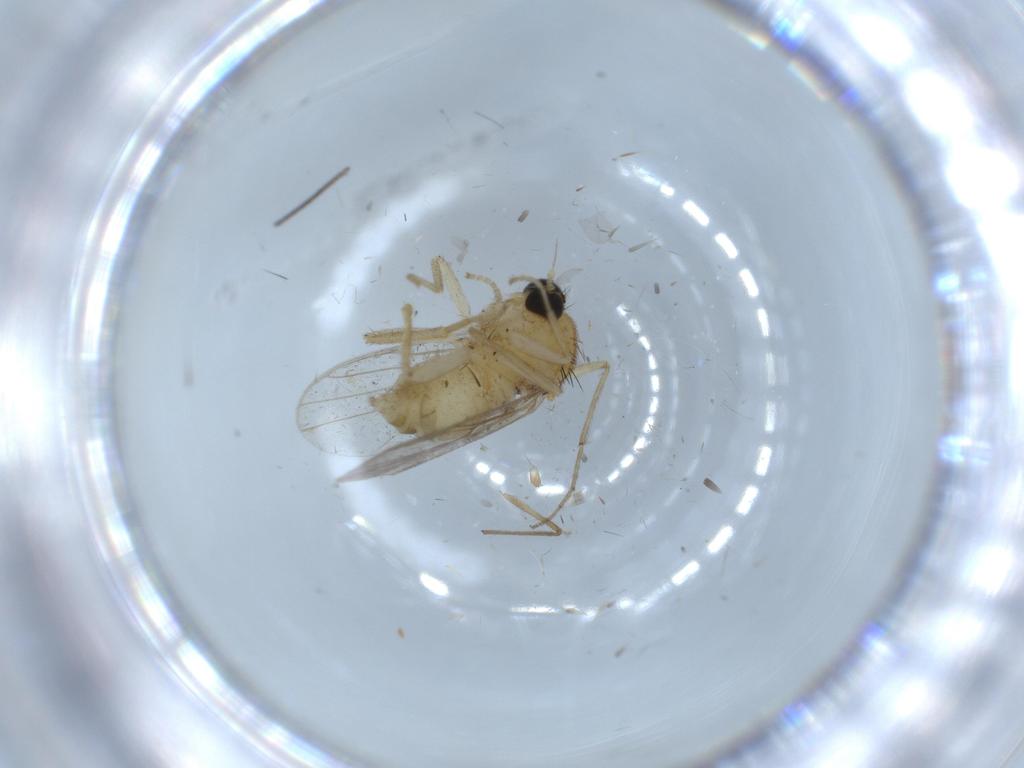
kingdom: Animalia
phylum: Arthropoda
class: Insecta
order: Diptera
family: Hybotidae
